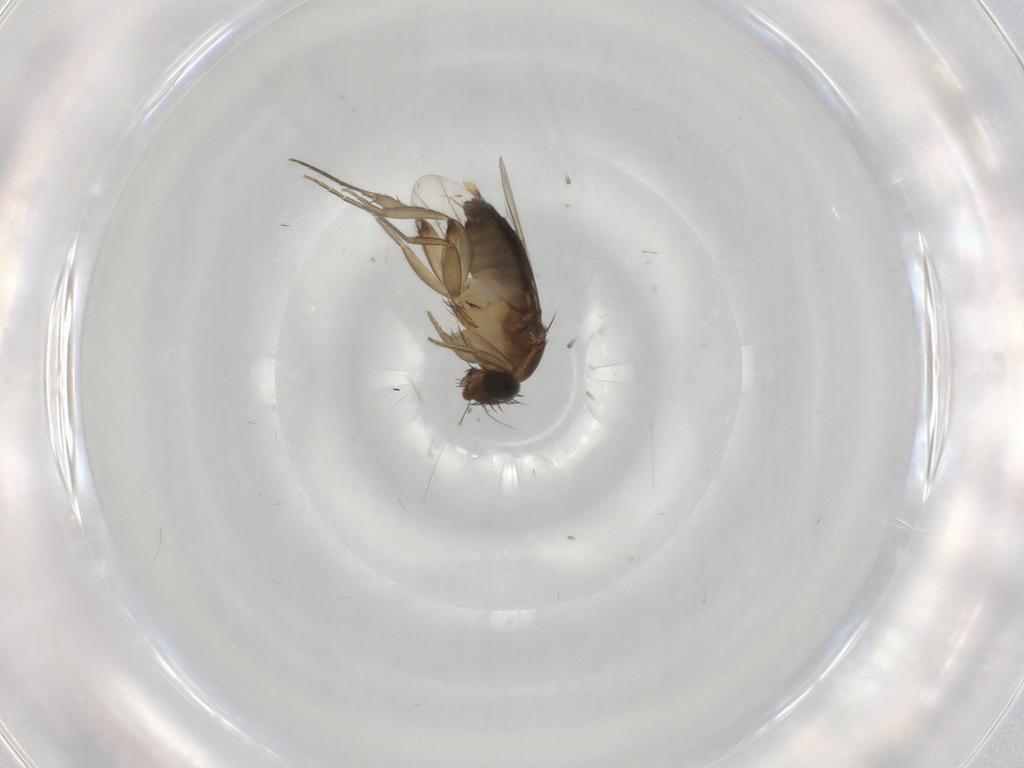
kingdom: Animalia
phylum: Arthropoda
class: Insecta
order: Diptera
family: Phoridae
